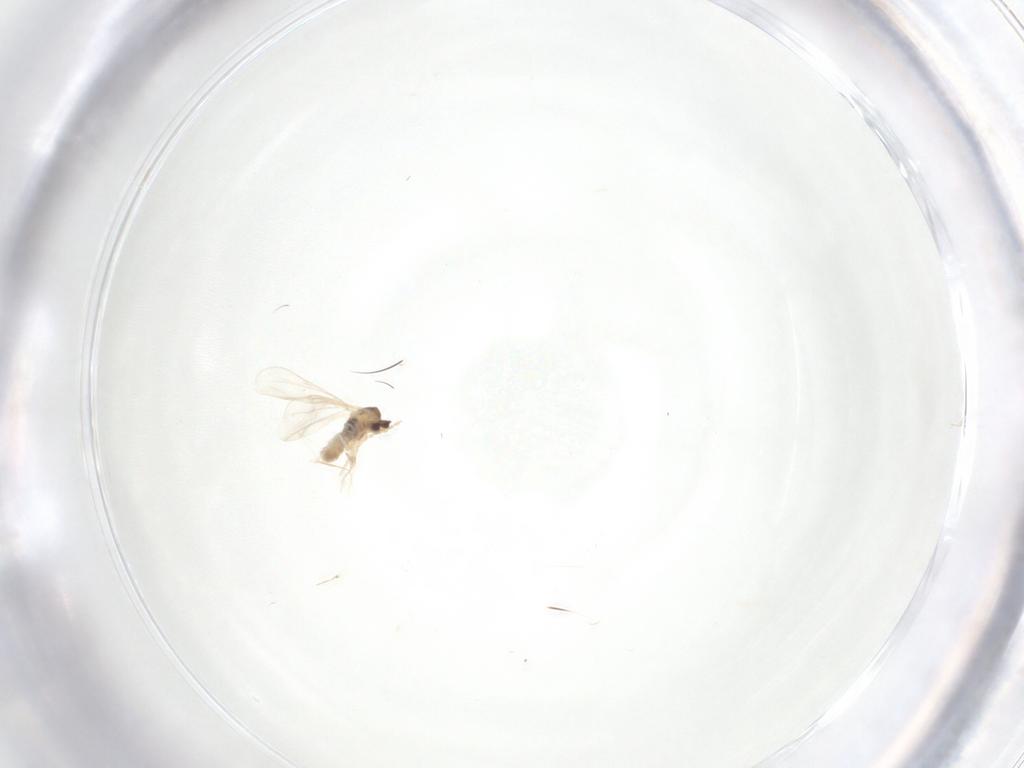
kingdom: Animalia
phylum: Arthropoda
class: Insecta
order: Diptera
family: Cecidomyiidae
